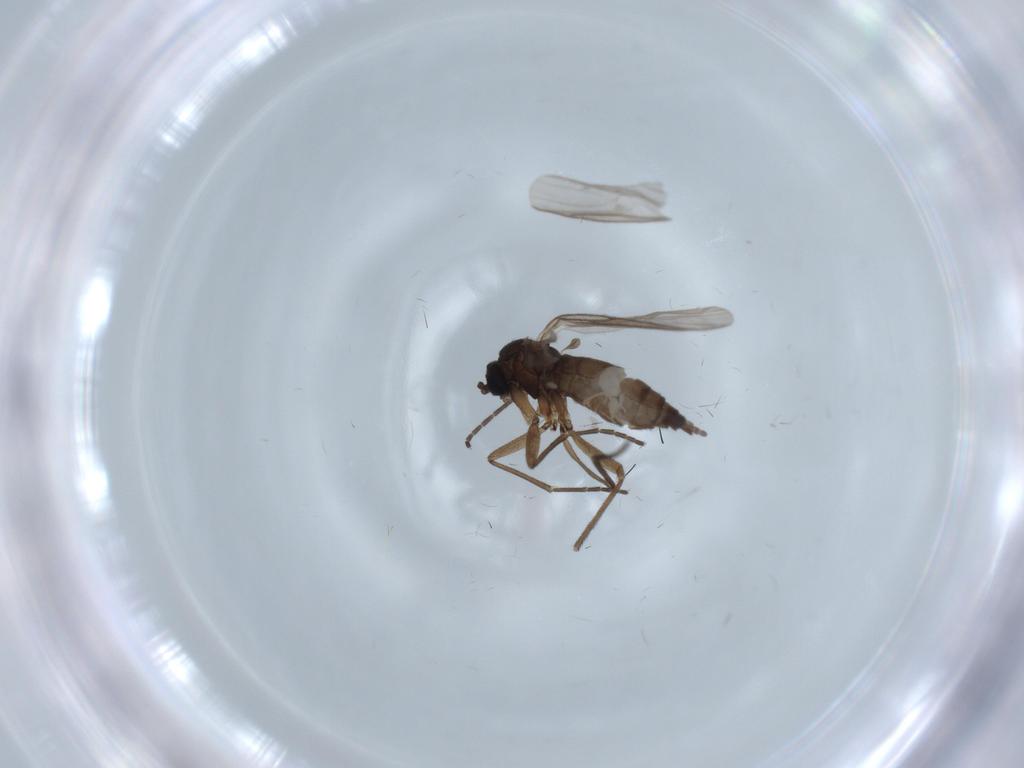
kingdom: Animalia
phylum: Arthropoda
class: Insecta
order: Diptera
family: Sciaridae
